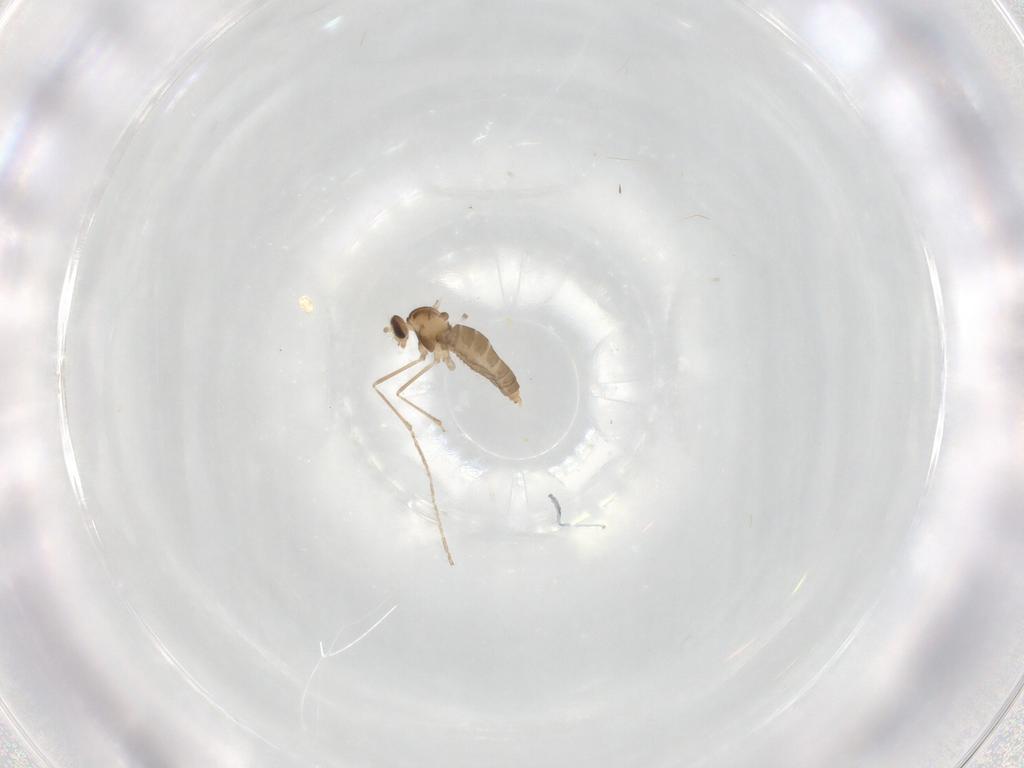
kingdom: Animalia
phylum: Arthropoda
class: Insecta
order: Diptera
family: Cecidomyiidae
